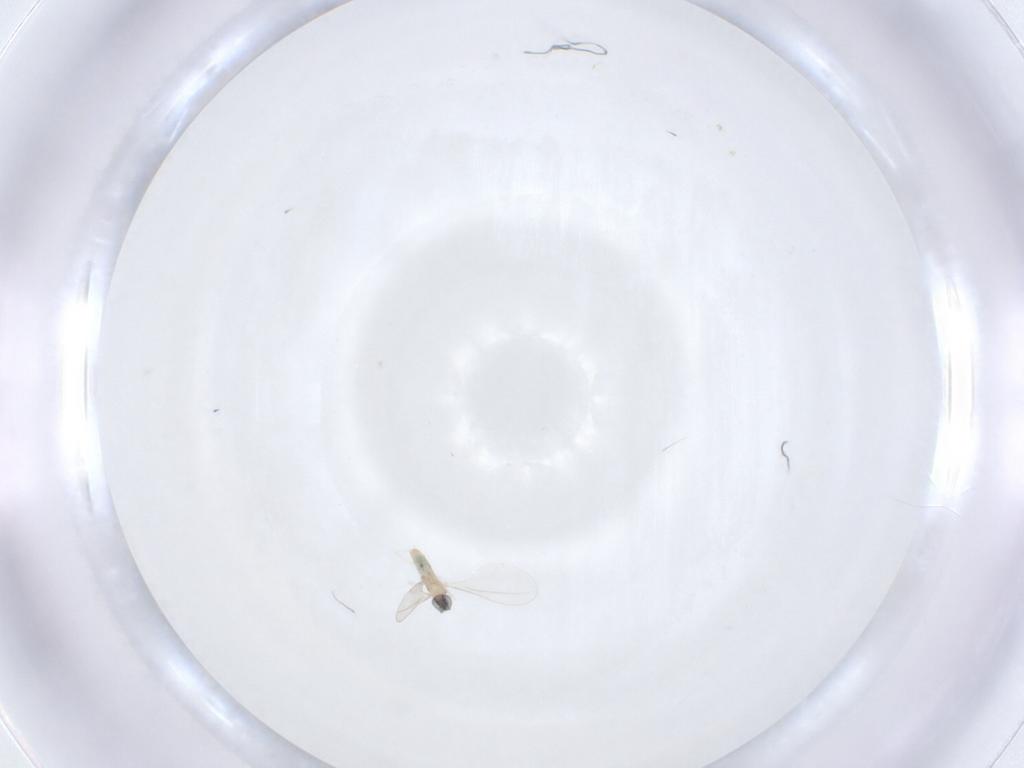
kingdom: Animalia
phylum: Arthropoda
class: Insecta
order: Diptera
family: Cecidomyiidae
